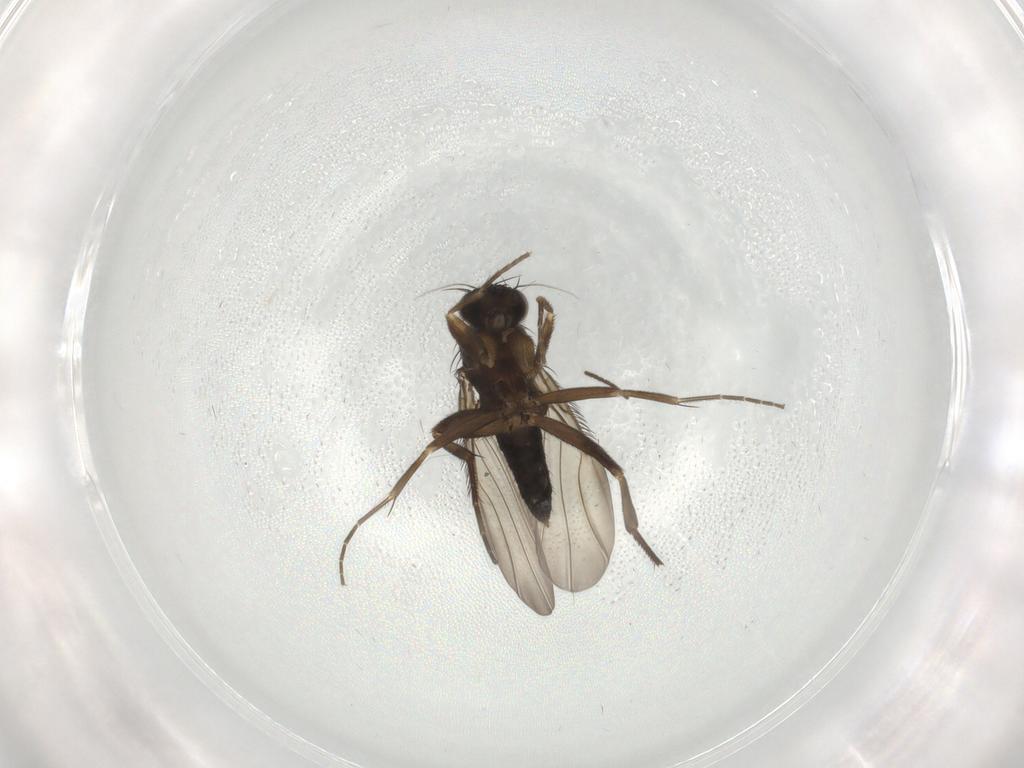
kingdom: Animalia
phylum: Arthropoda
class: Insecta
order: Diptera
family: Phoridae
